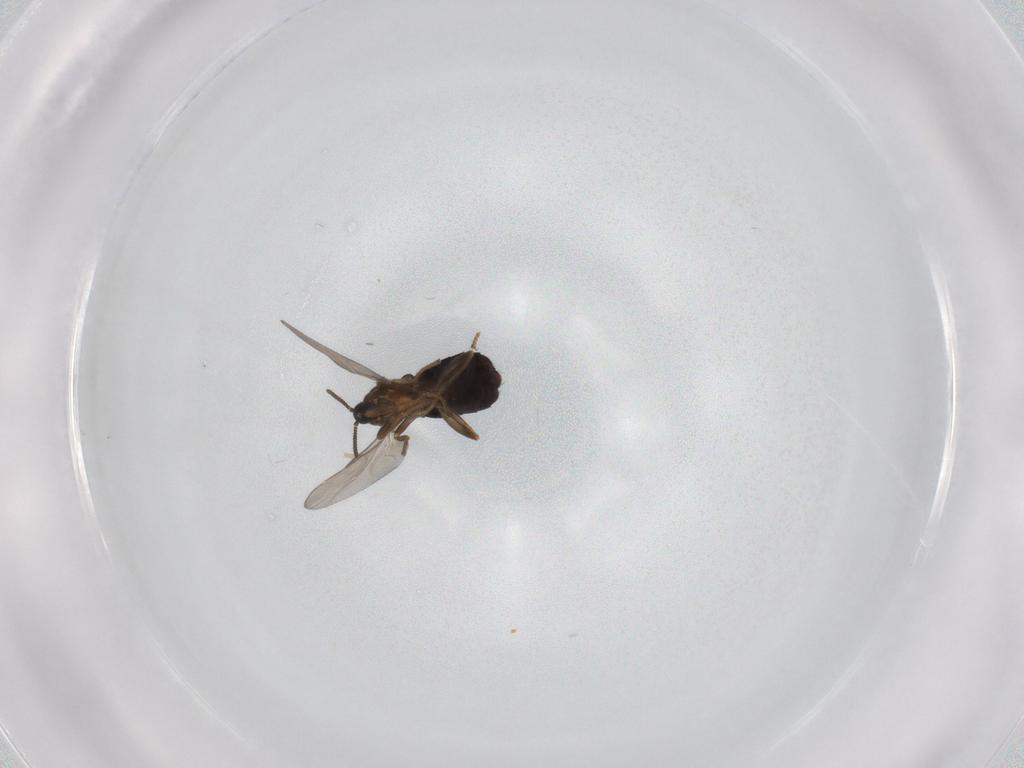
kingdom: Animalia
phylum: Arthropoda
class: Insecta
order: Diptera
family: Scatopsidae
